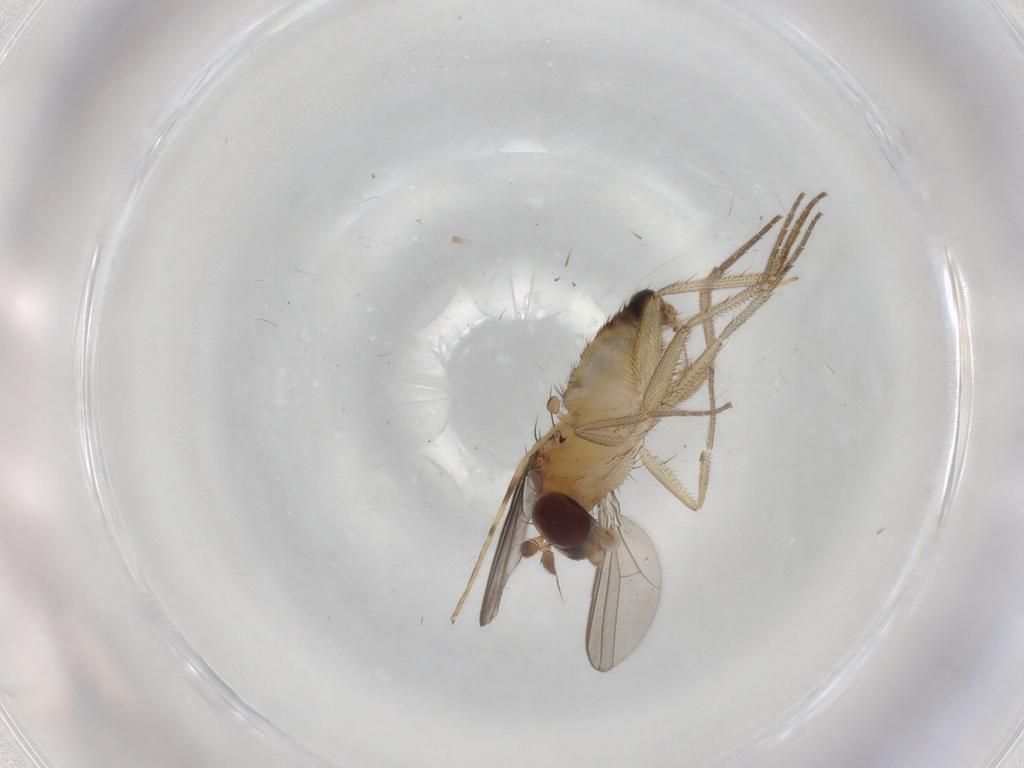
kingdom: Animalia
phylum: Arthropoda
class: Insecta
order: Diptera
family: Dolichopodidae
